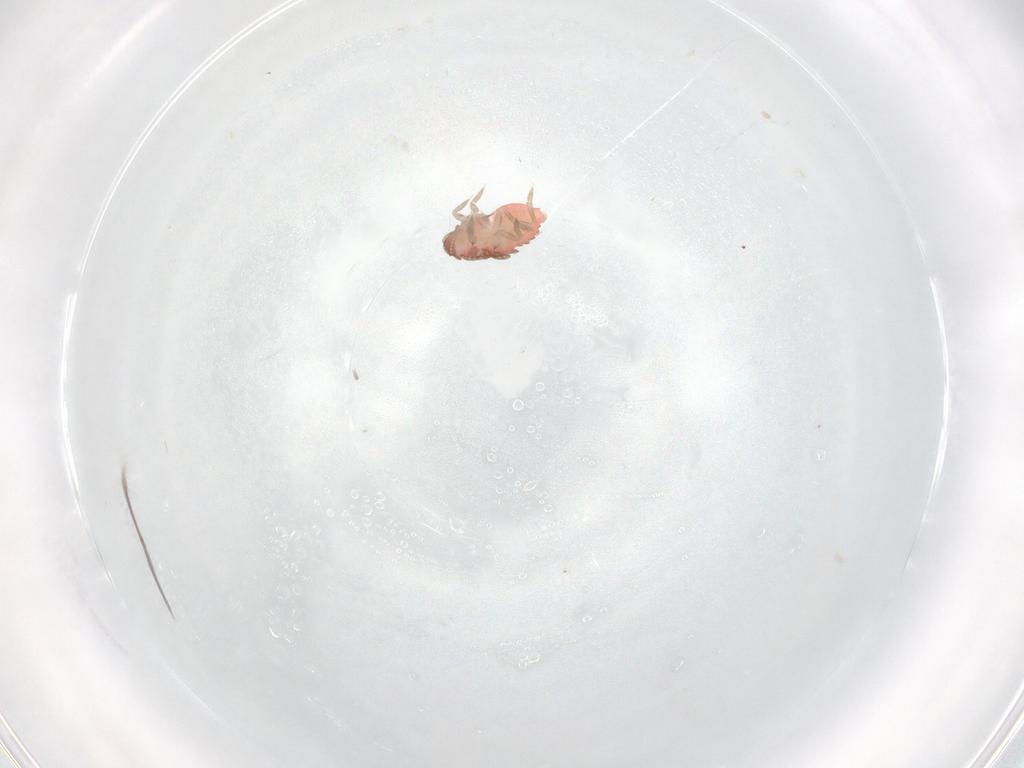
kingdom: Animalia
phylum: Arthropoda
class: Insecta
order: Hemiptera
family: Derbidae
